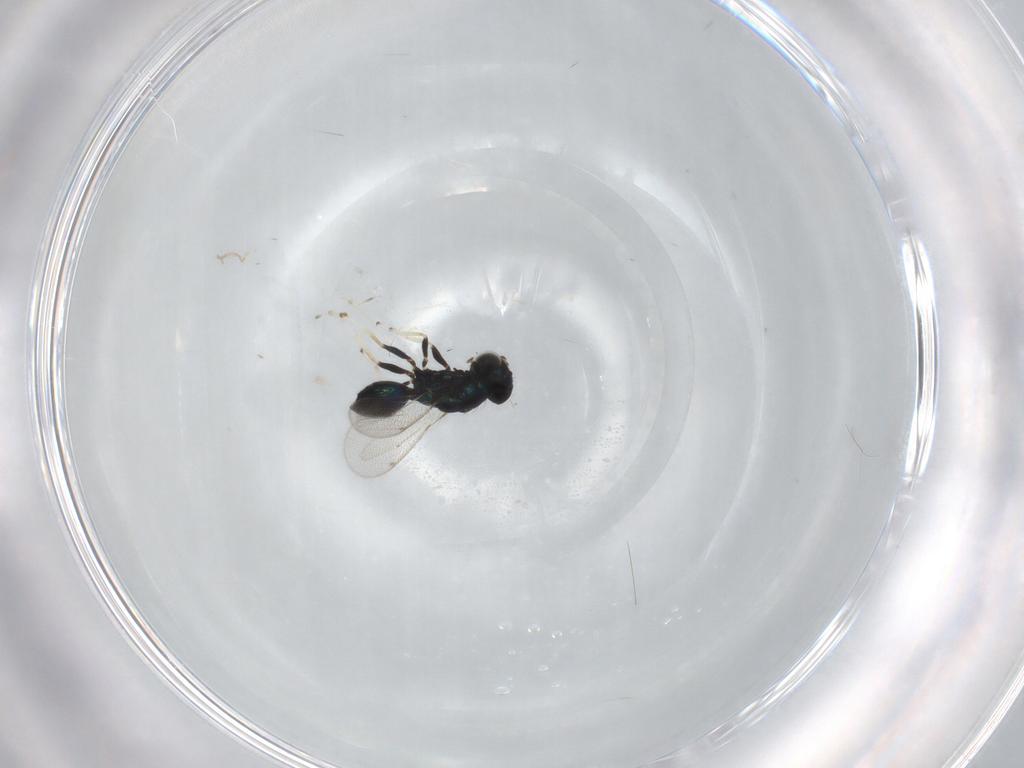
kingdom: Animalia
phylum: Arthropoda
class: Insecta
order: Hymenoptera
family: Eulophidae
